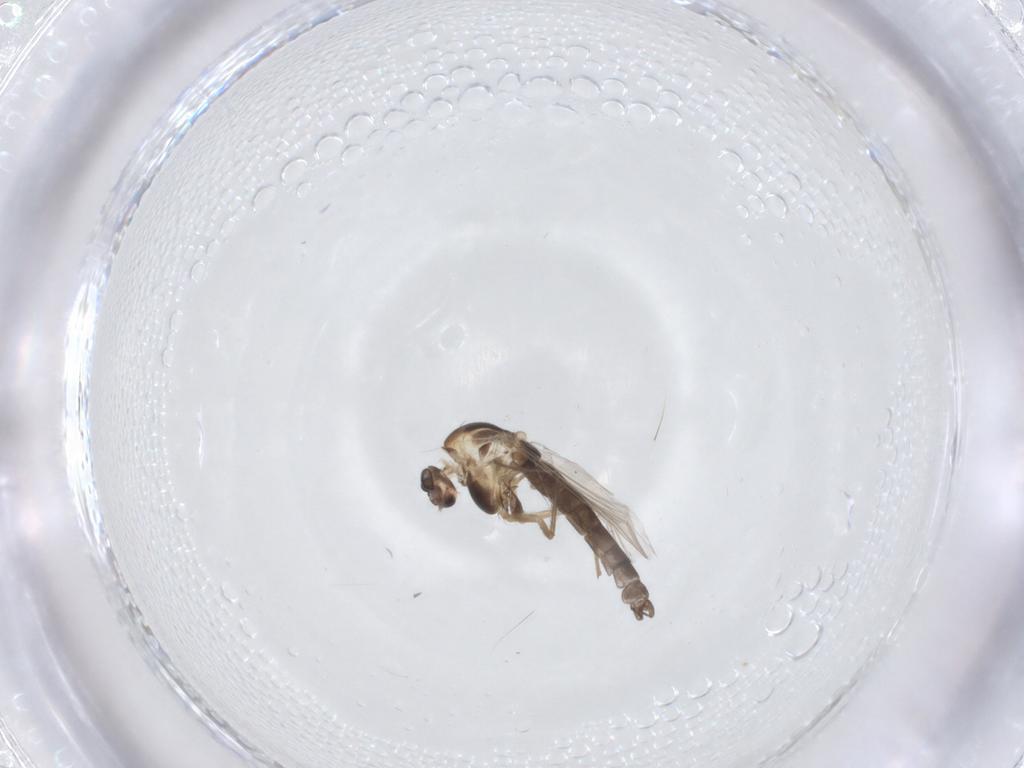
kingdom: Animalia
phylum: Arthropoda
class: Insecta
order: Diptera
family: Chironomidae
